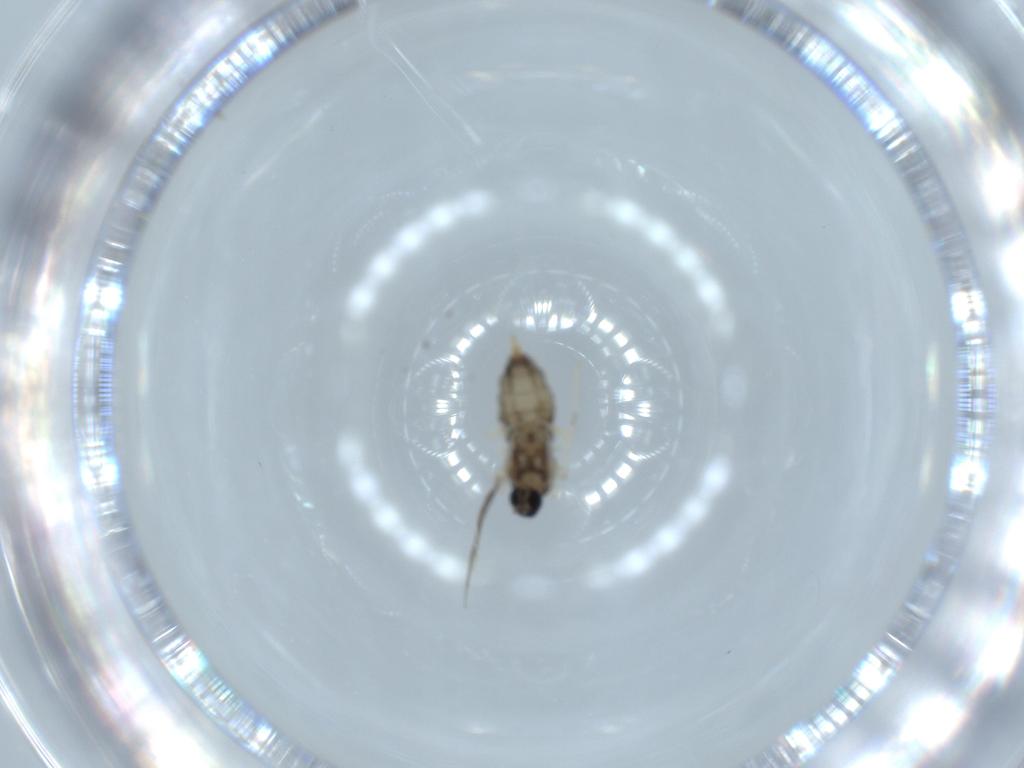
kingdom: Animalia
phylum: Arthropoda
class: Insecta
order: Diptera
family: Cecidomyiidae
